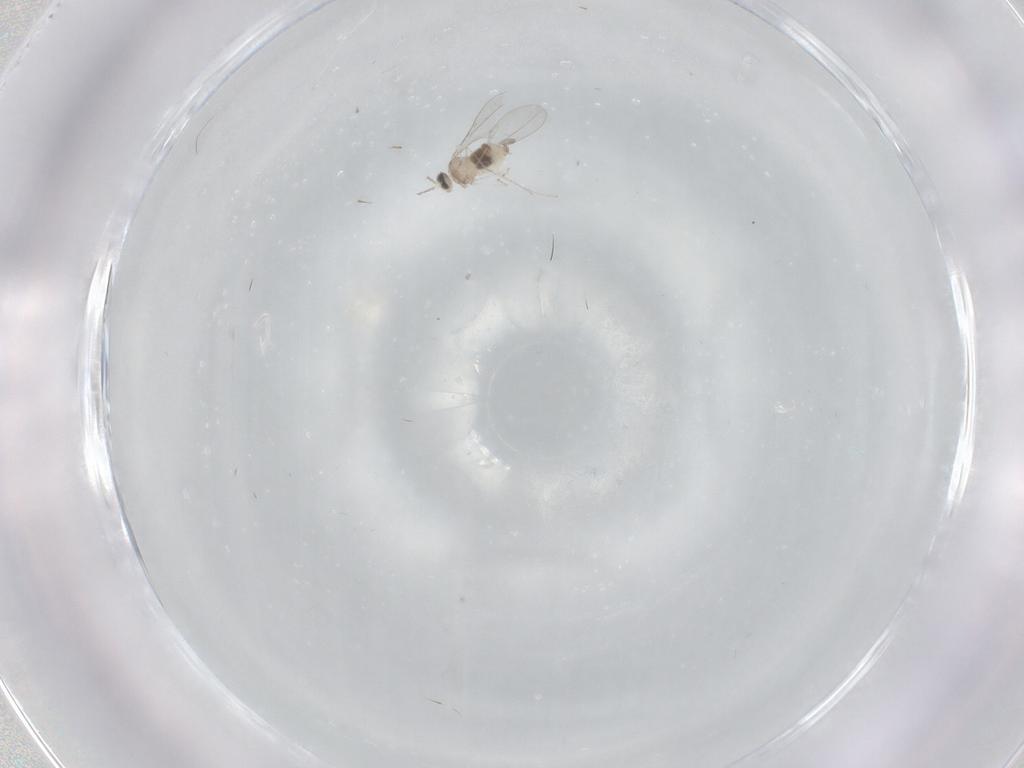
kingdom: Animalia
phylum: Arthropoda
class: Insecta
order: Diptera
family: Cecidomyiidae
